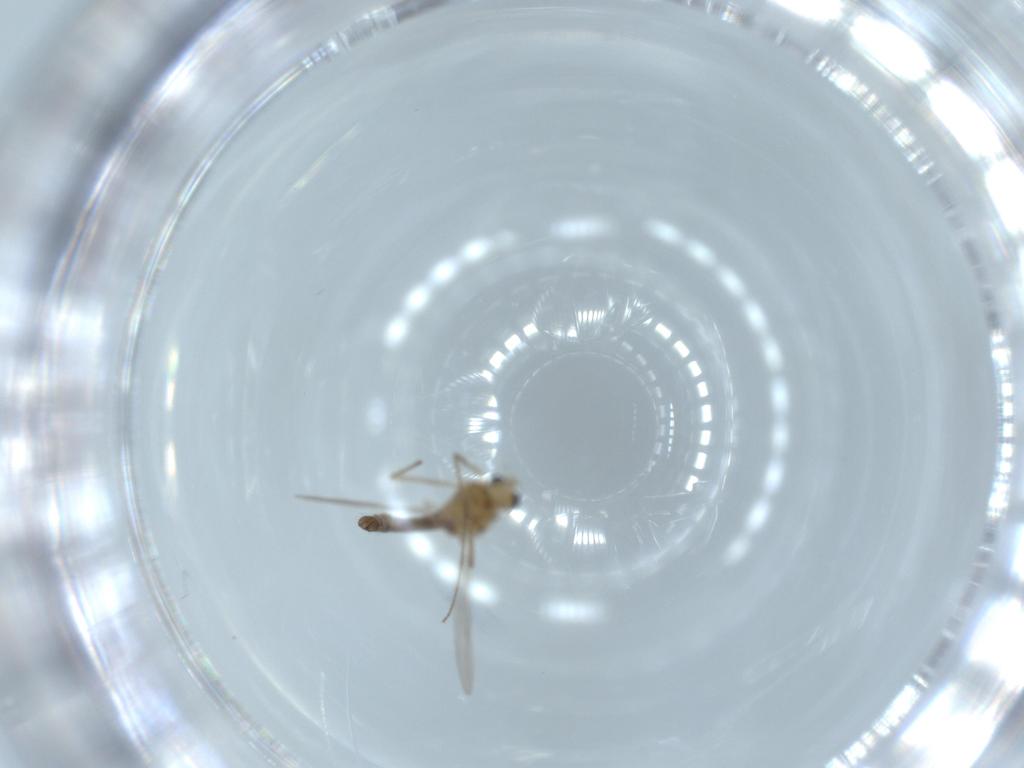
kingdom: Animalia
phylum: Arthropoda
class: Insecta
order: Diptera
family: Chironomidae
